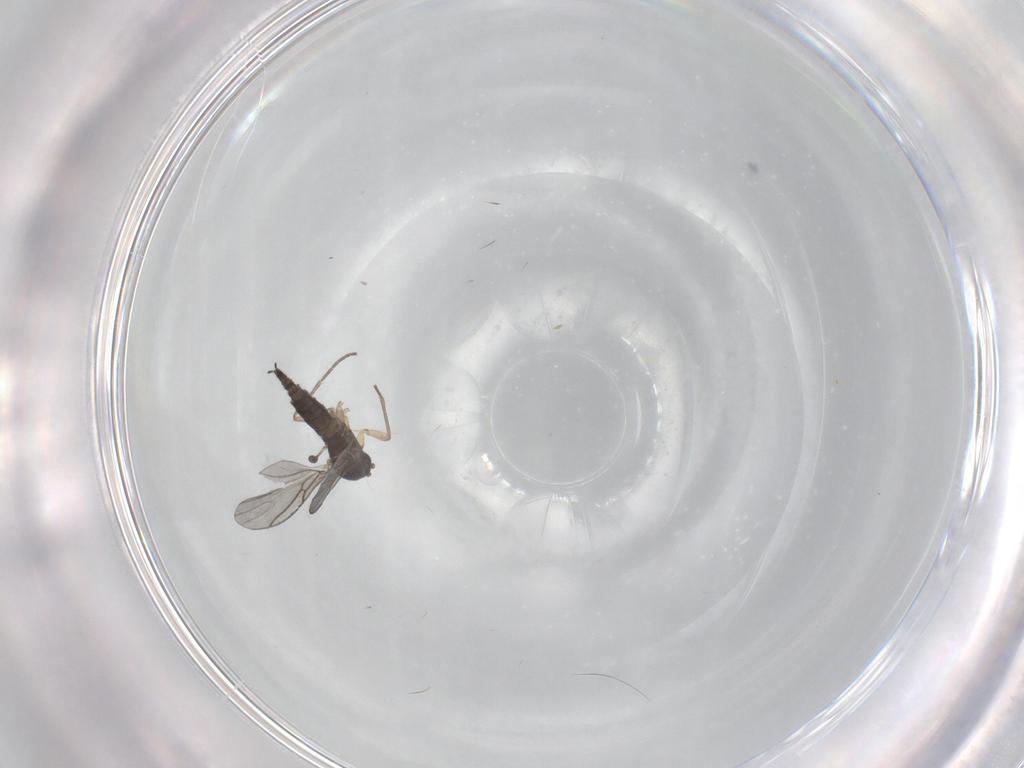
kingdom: Animalia
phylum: Arthropoda
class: Insecta
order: Diptera
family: Sciaridae
